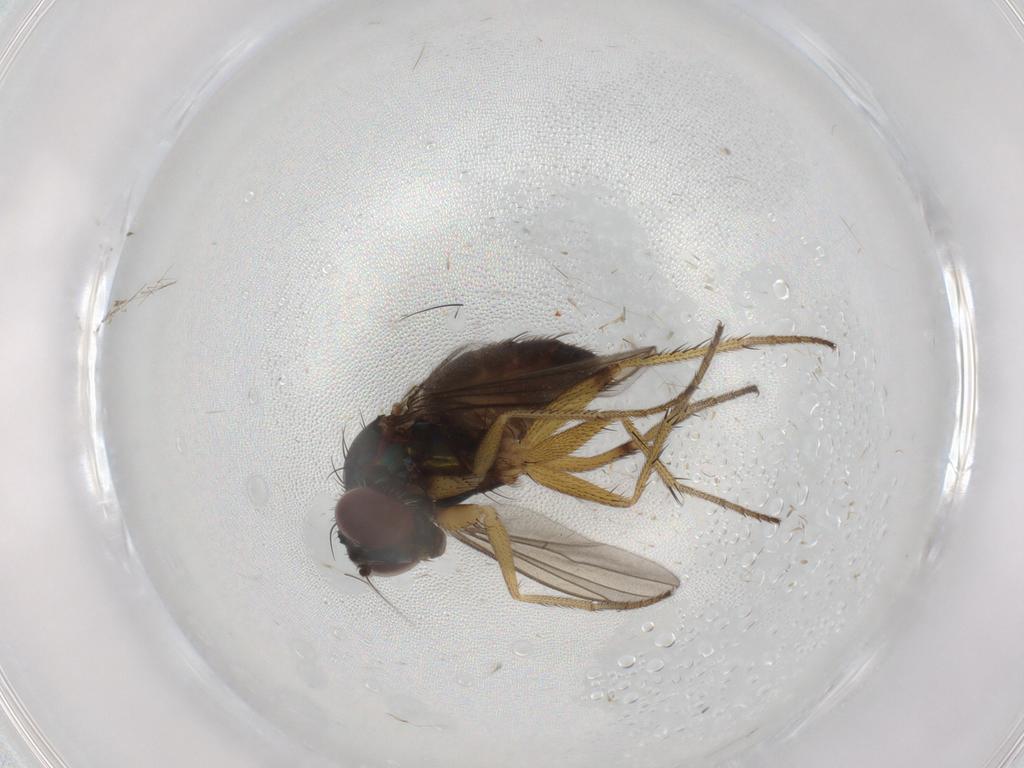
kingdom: Animalia
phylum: Arthropoda
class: Insecta
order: Diptera
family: Dolichopodidae
